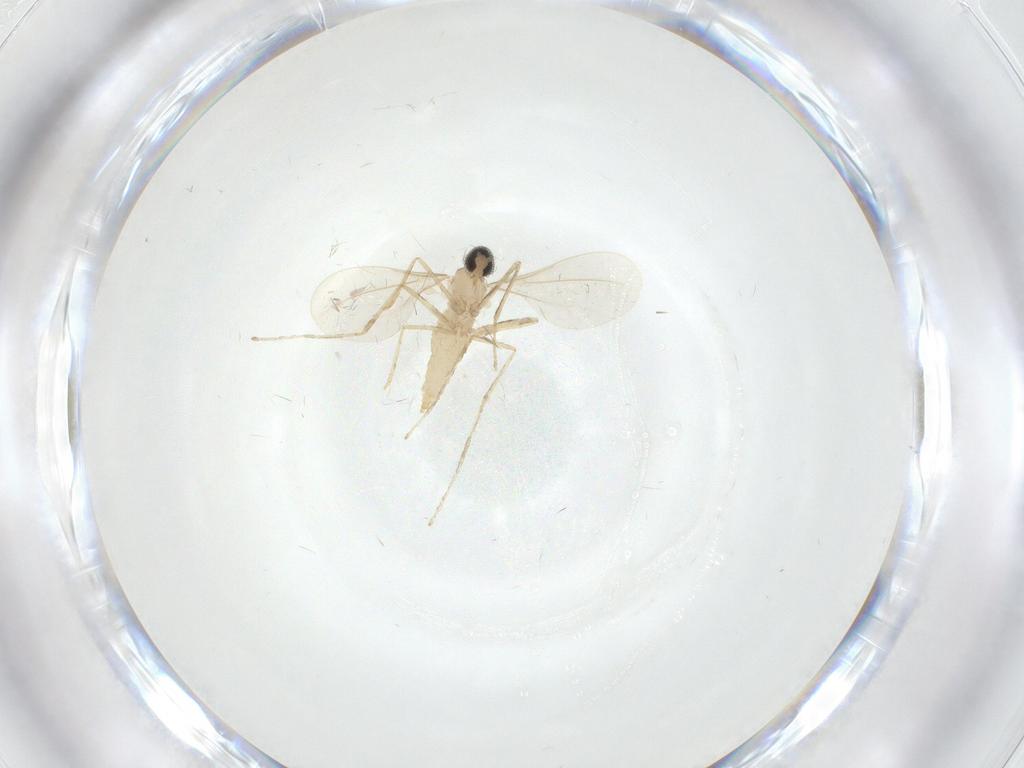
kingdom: Animalia
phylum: Arthropoda
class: Insecta
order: Diptera
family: Cecidomyiidae
